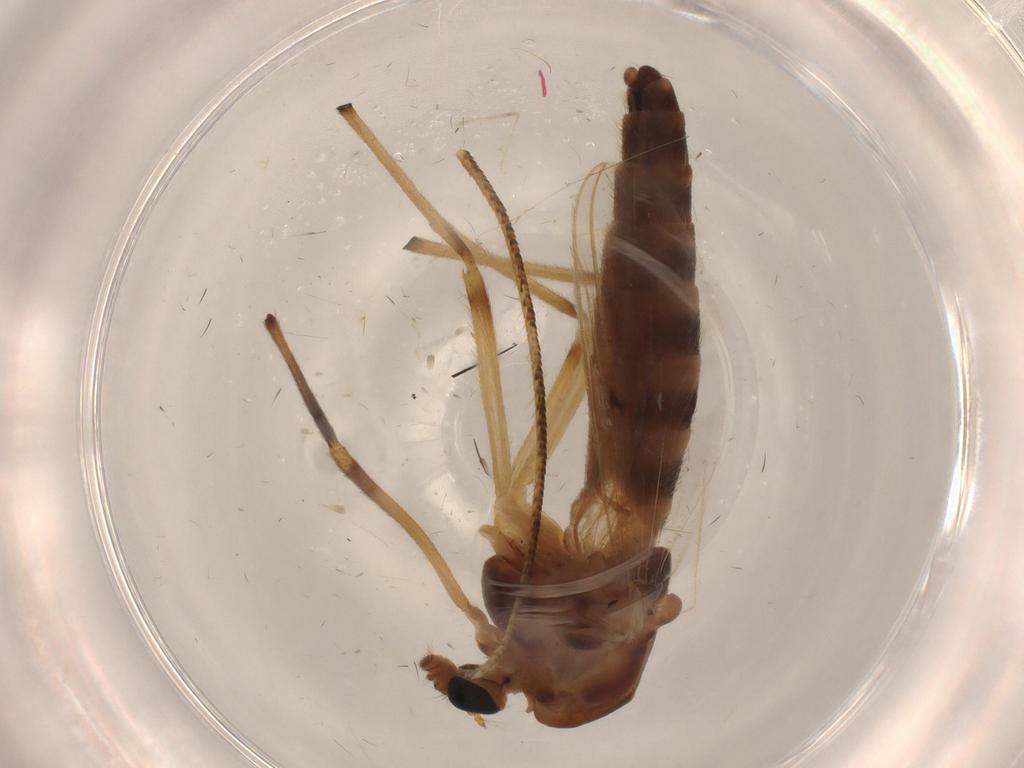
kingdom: Animalia
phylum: Arthropoda
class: Insecta
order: Diptera
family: Chironomidae
